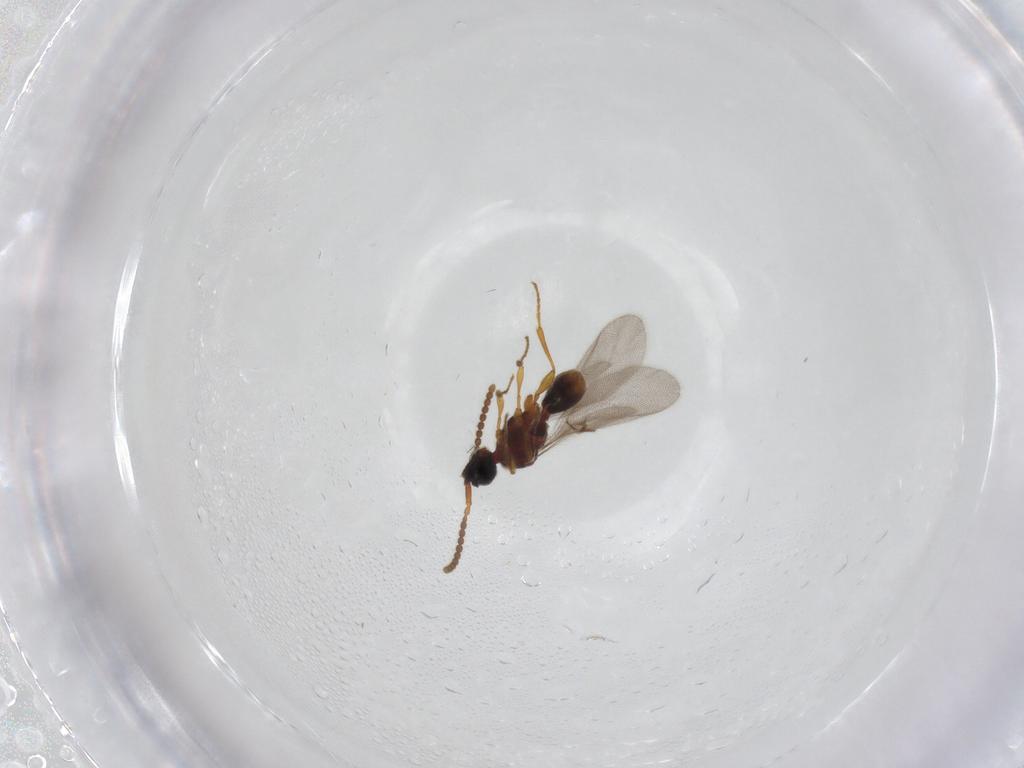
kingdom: Animalia
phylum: Arthropoda
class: Insecta
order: Hymenoptera
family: Diapriidae
